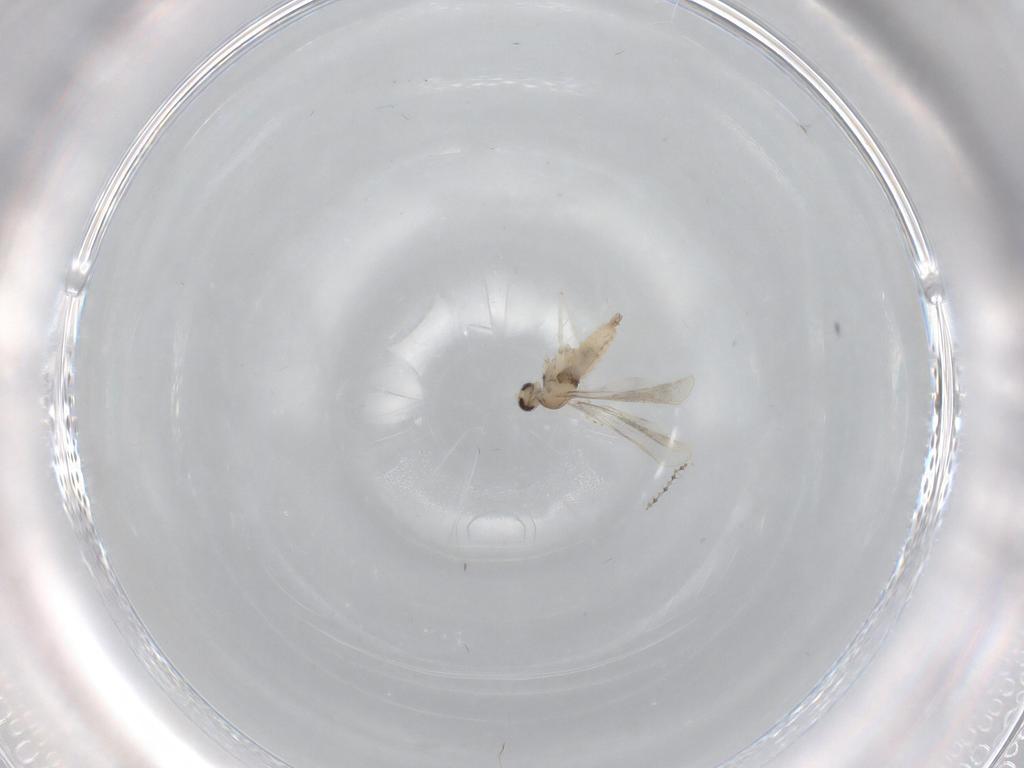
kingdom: Animalia
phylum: Arthropoda
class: Insecta
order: Diptera
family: Cecidomyiidae
